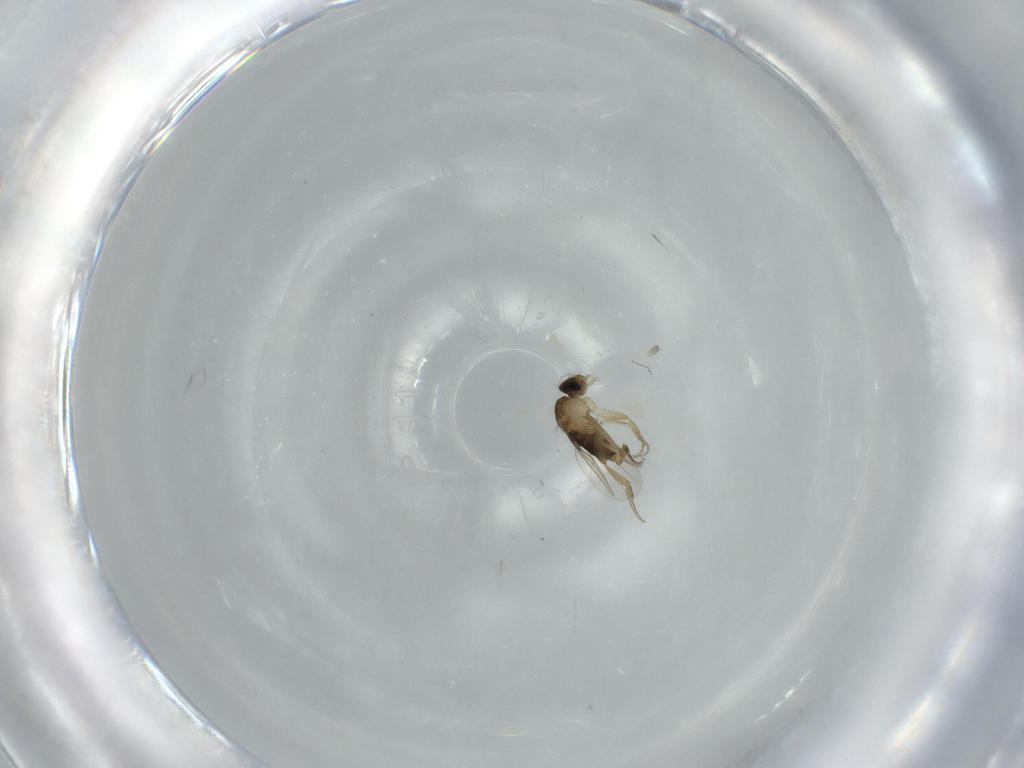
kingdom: Animalia
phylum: Arthropoda
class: Insecta
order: Diptera
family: Phoridae
